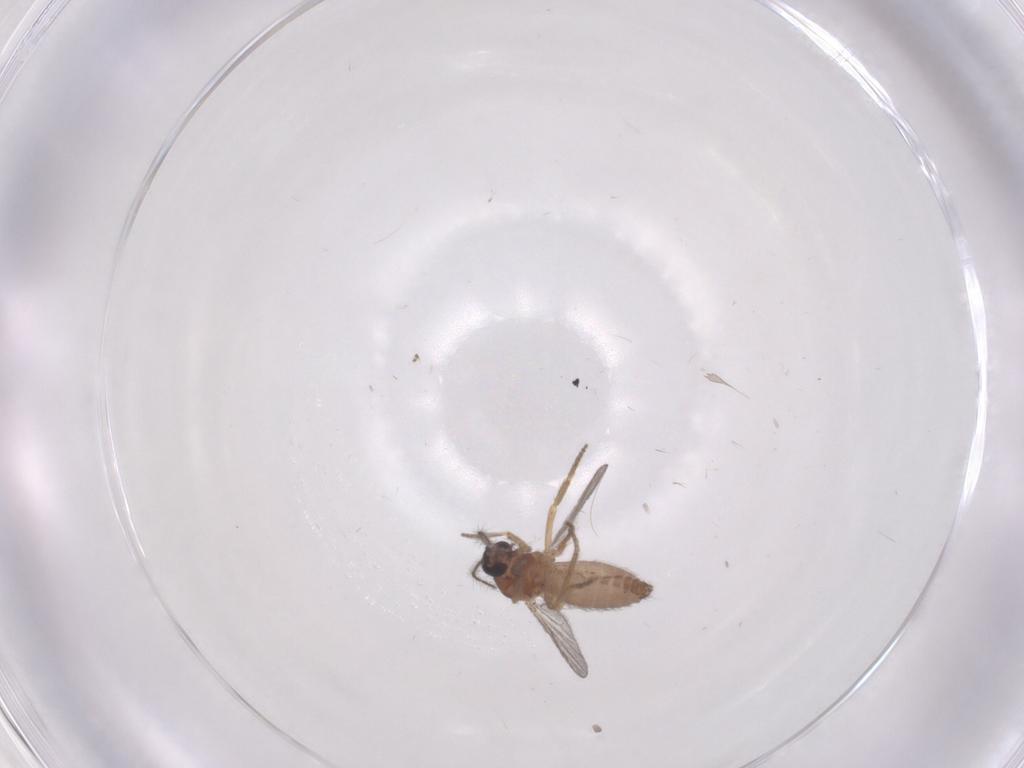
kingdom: Animalia
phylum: Arthropoda
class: Insecta
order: Diptera
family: Ceratopogonidae
